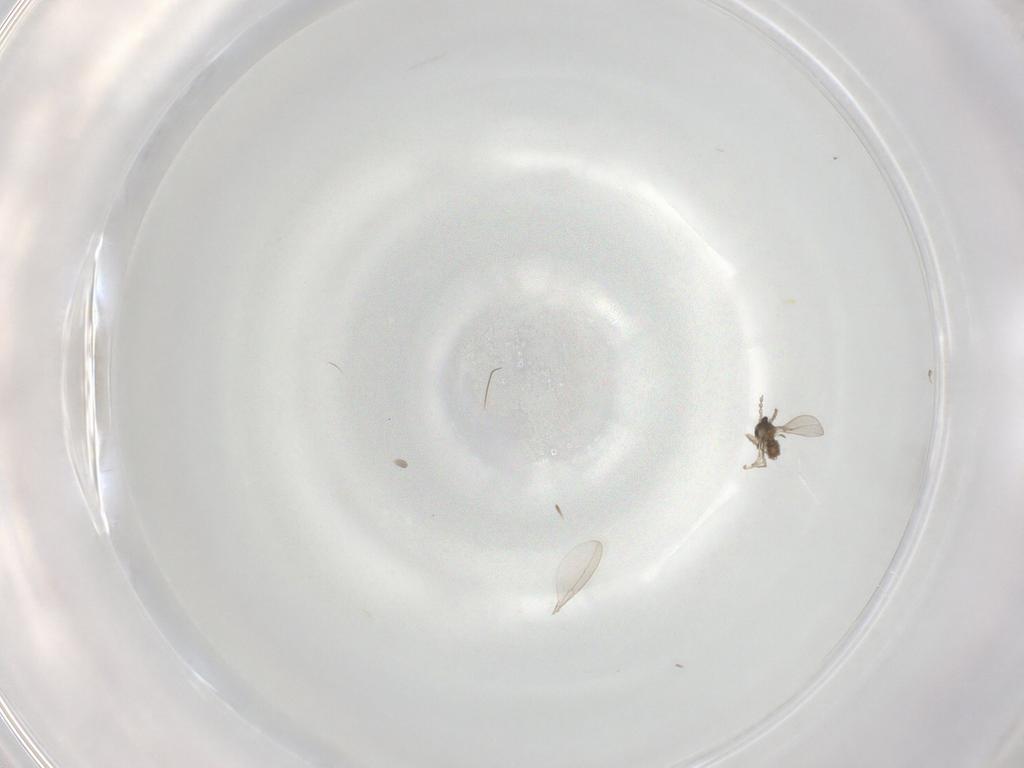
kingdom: Animalia
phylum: Arthropoda
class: Insecta
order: Diptera
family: Cecidomyiidae
